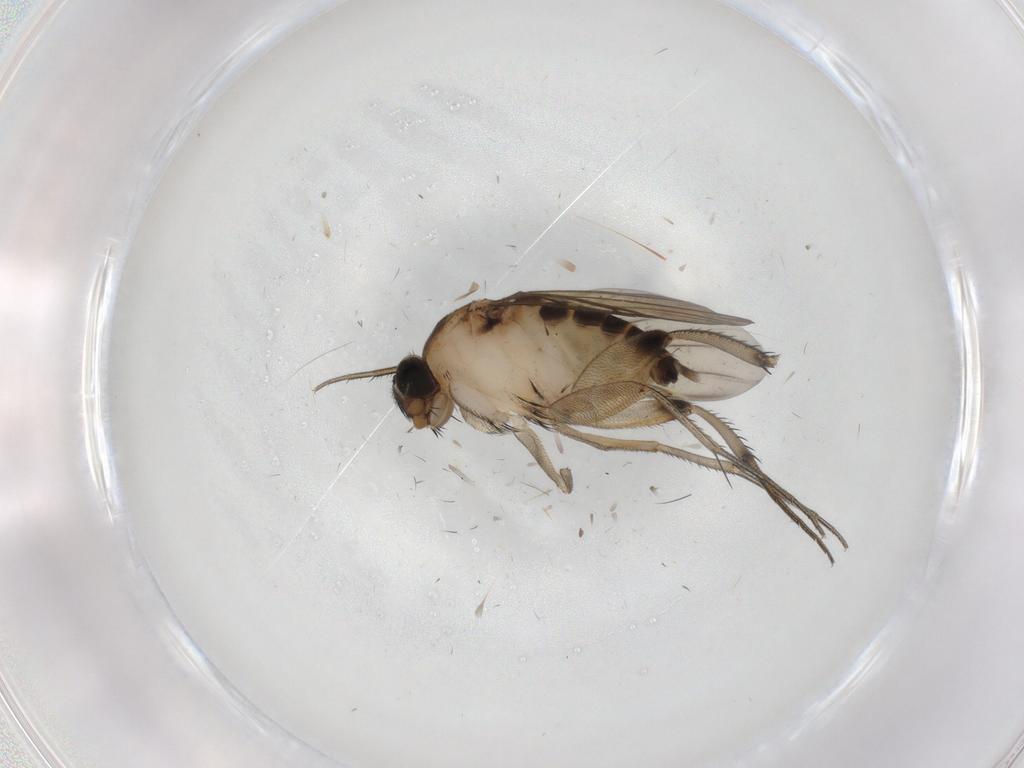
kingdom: Animalia
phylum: Arthropoda
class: Insecta
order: Diptera
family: Phoridae
